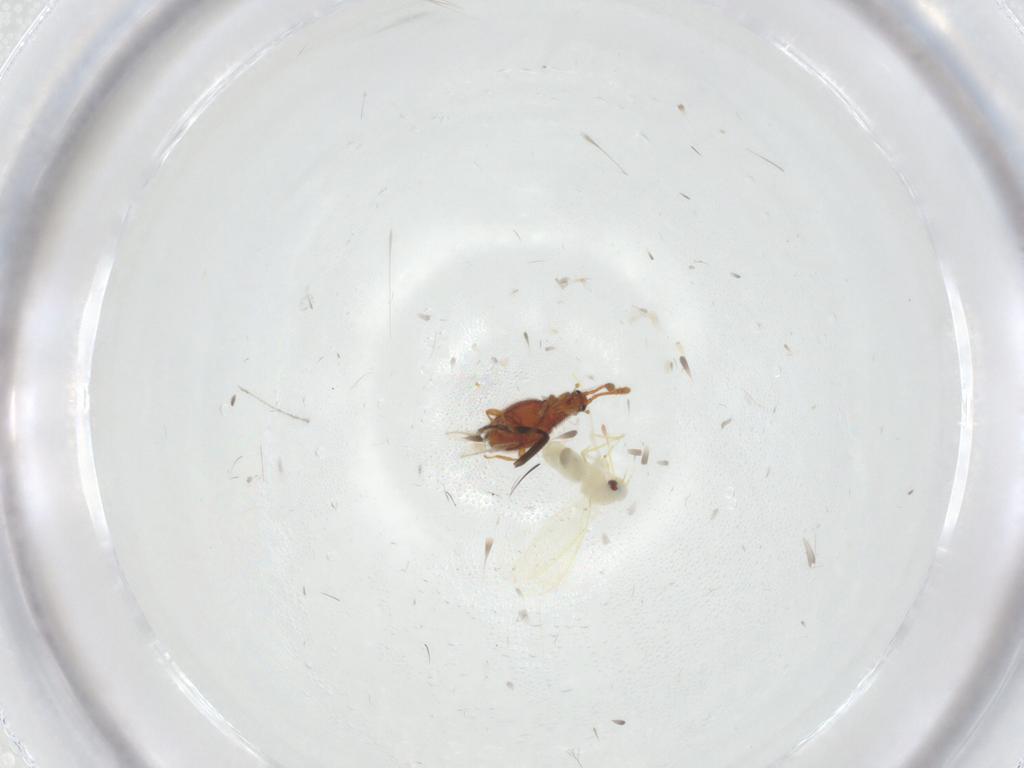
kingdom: Animalia
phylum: Arthropoda
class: Insecta
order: Coleoptera
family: Staphylinidae
